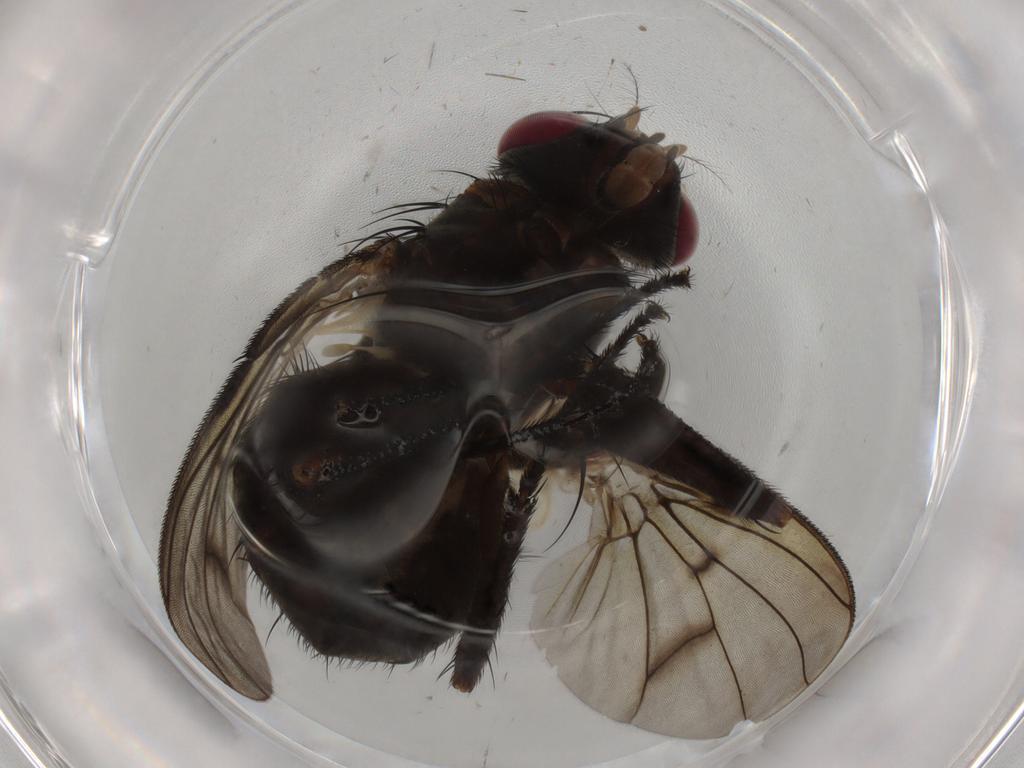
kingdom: Animalia
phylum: Arthropoda
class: Insecta
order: Diptera
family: Muscidae
